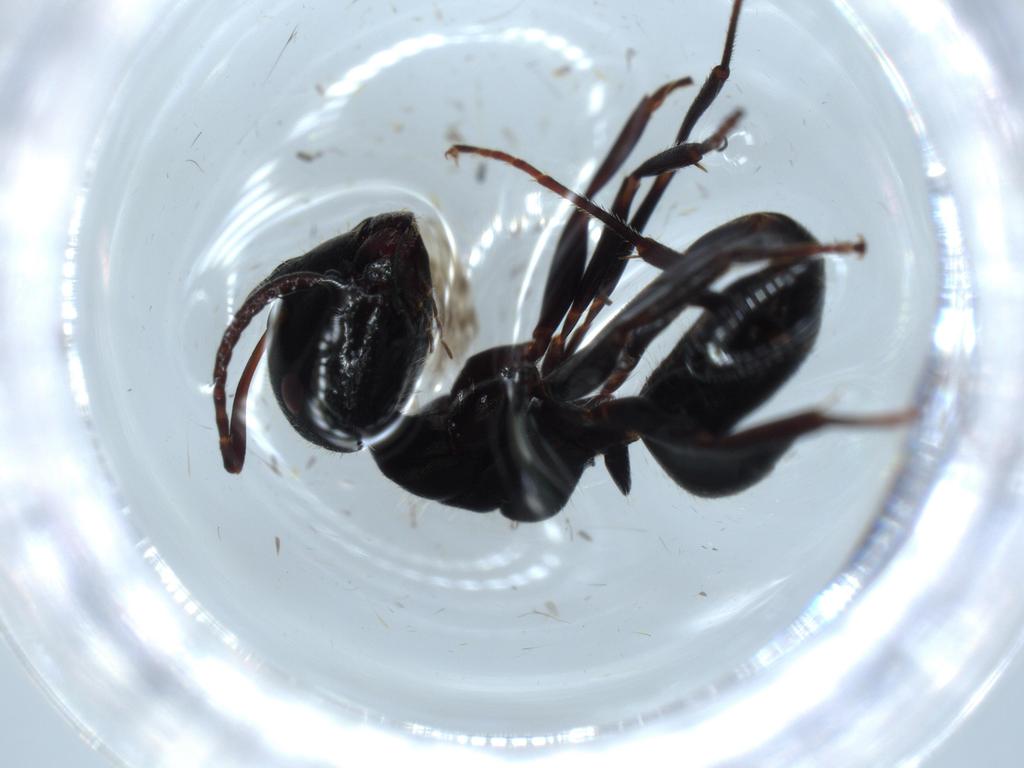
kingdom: Animalia
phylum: Arthropoda
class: Insecta
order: Hymenoptera
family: Formicidae
